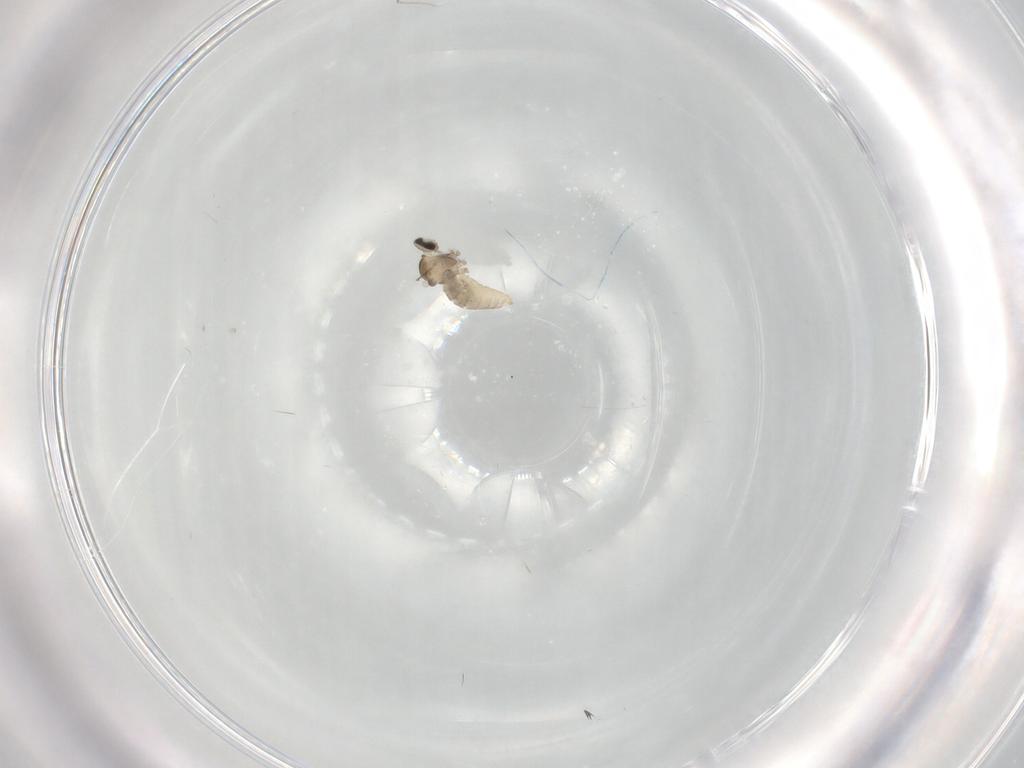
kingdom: Animalia
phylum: Arthropoda
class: Insecta
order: Diptera
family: Cecidomyiidae
